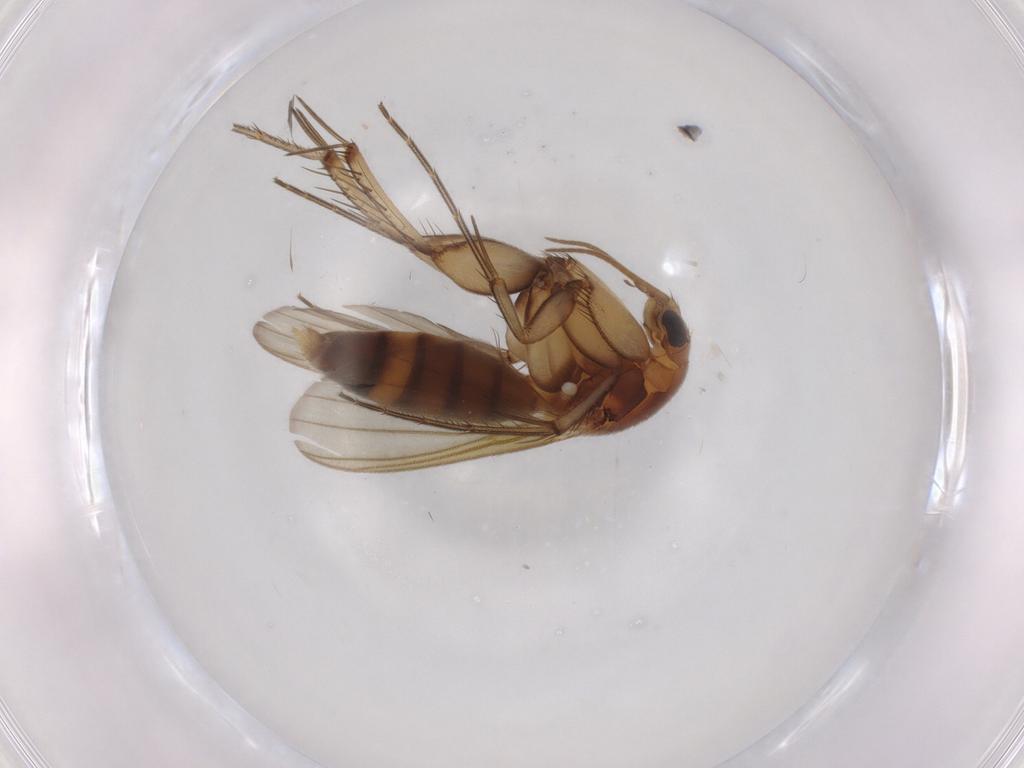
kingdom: Animalia
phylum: Arthropoda
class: Insecta
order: Diptera
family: Mycetophilidae
